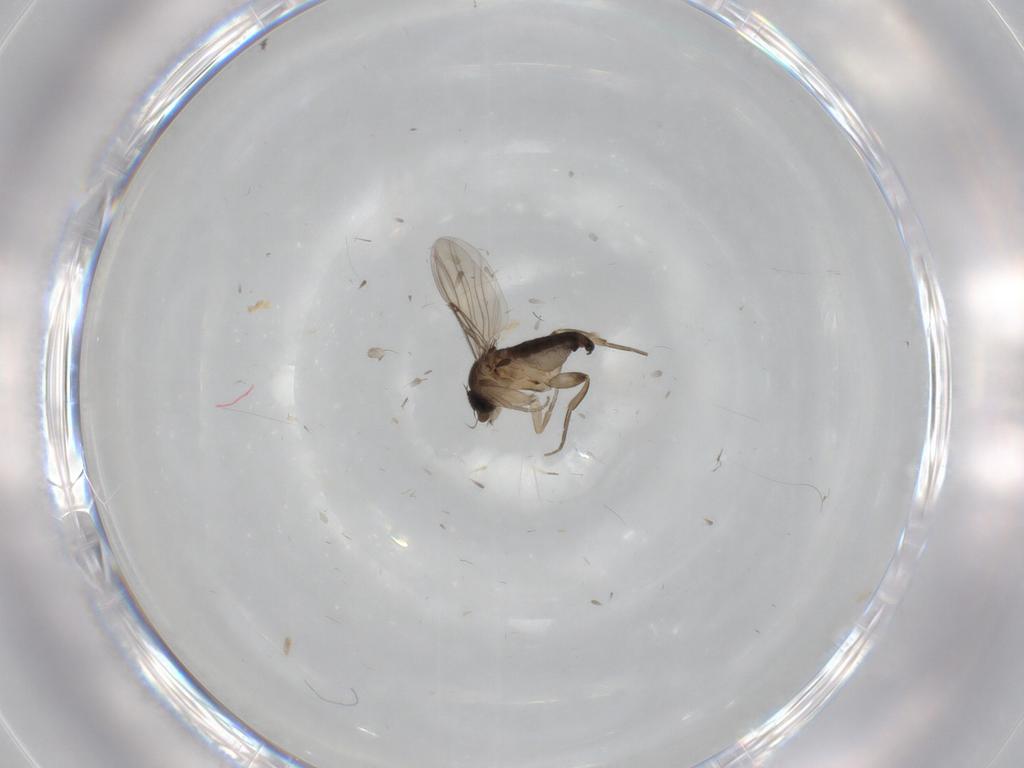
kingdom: Animalia
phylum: Arthropoda
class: Insecta
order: Diptera
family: Phoridae
